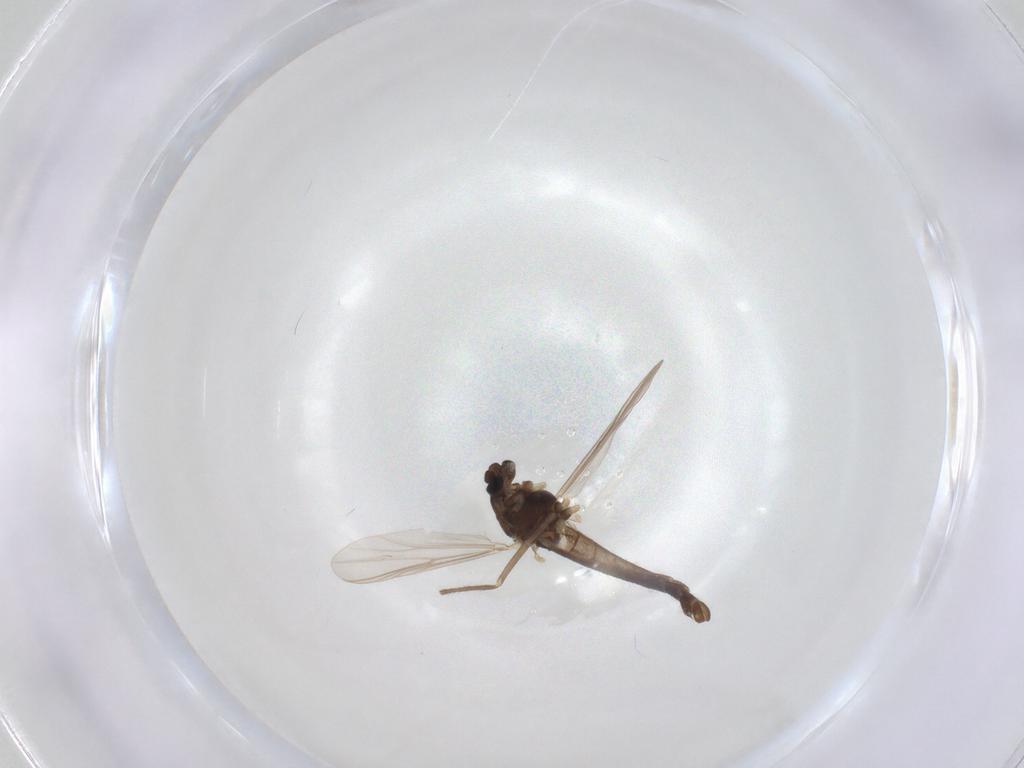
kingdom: Animalia
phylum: Arthropoda
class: Insecta
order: Diptera
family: Chironomidae
